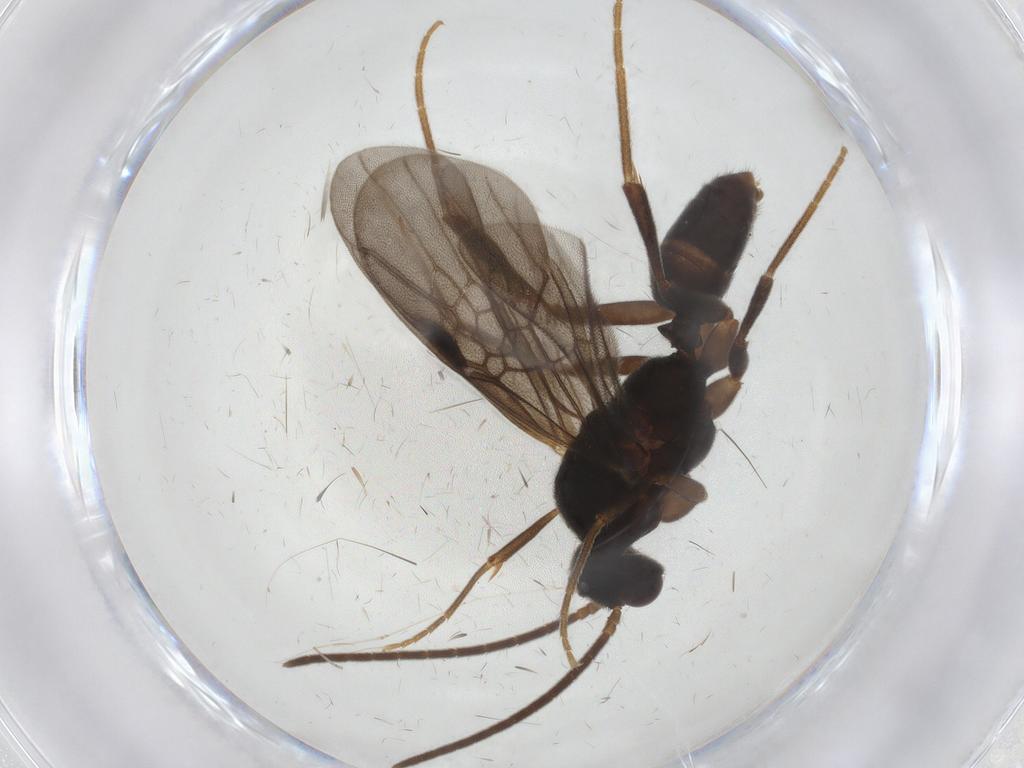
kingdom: Animalia
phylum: Arthropoda
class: Insecta
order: Hymenoptera
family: Formicidae
